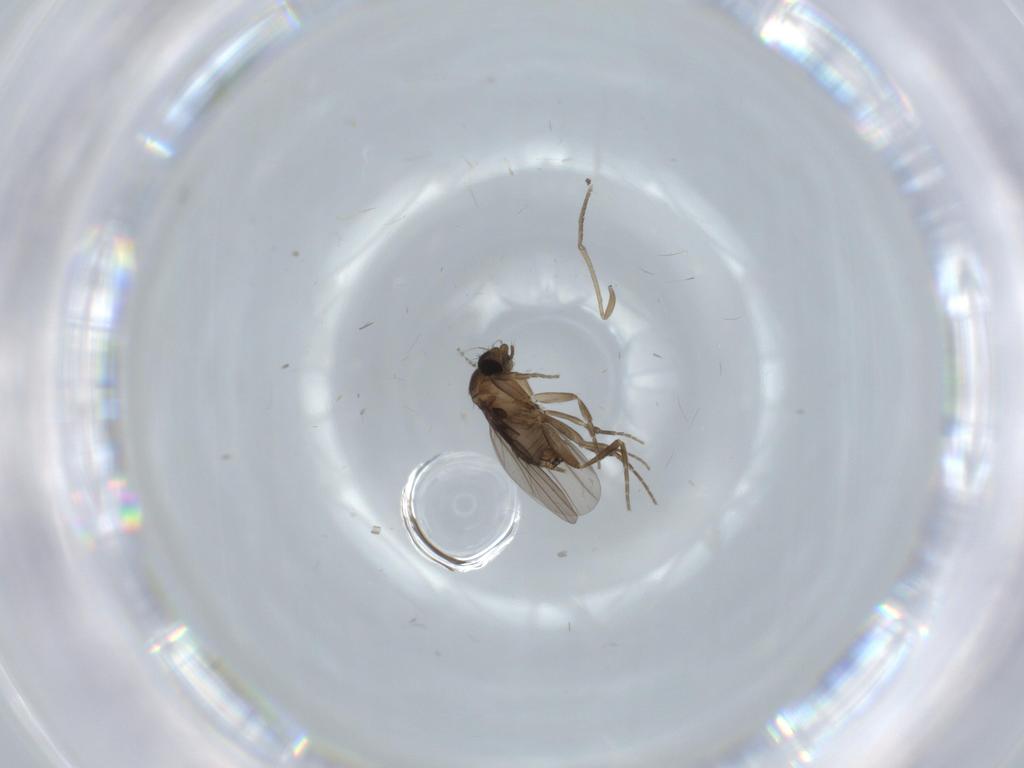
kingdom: Animalia
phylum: Arthropoda
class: Insecta
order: Diptera
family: Psychodidae
